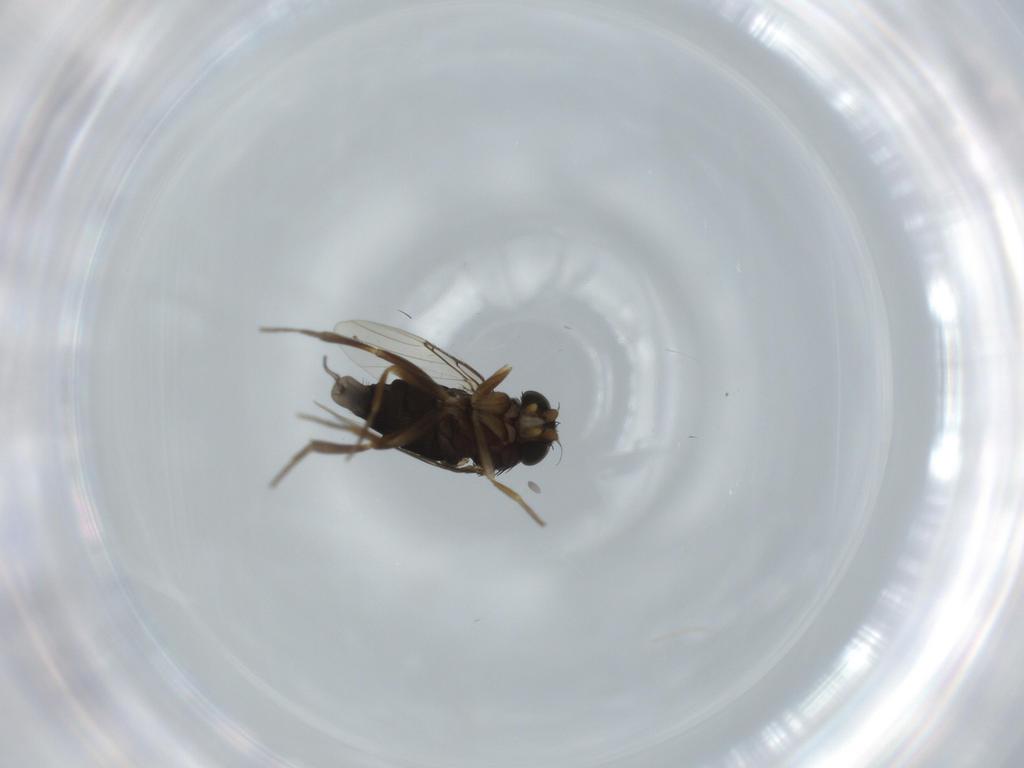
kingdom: Animalia
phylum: Arthropoda
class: Insecta
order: Diptera
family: Phoridae
